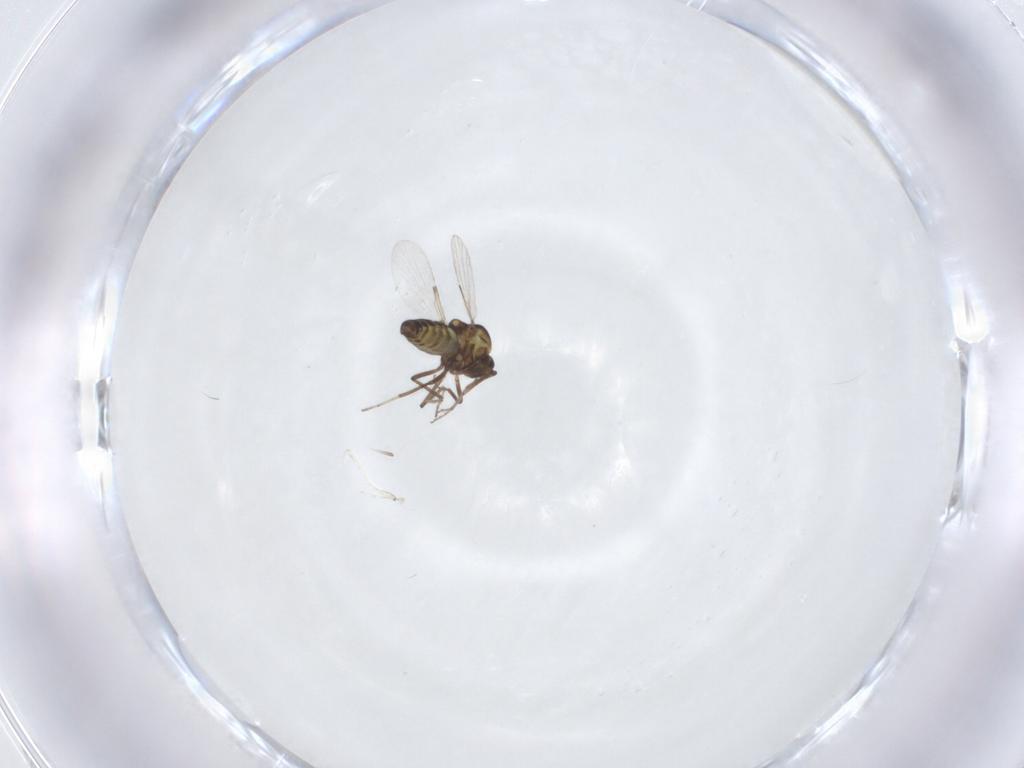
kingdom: Animalia
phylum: Arthropoda
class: Insecta
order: Diptera
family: Ceratopogonidae
